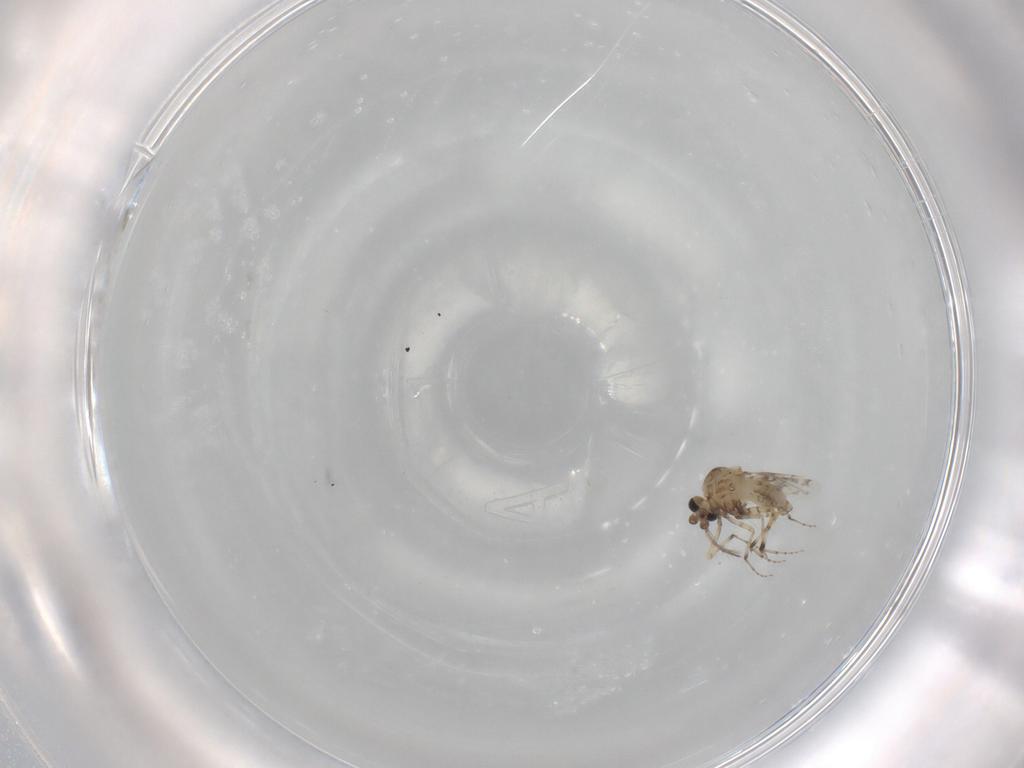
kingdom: Animalia
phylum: Arthropoda
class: Insecta
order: Diptera
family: Ceratopogonidae
